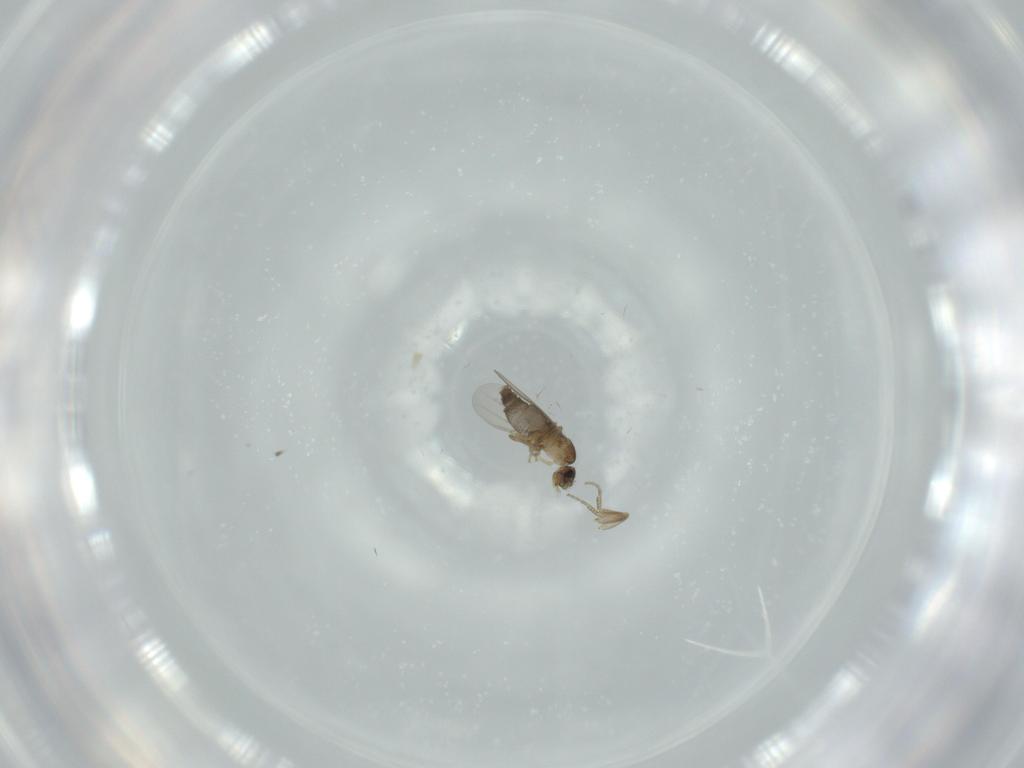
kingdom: Animalia
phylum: Arthropoda
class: Insecta
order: Diptera
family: Phoridae
